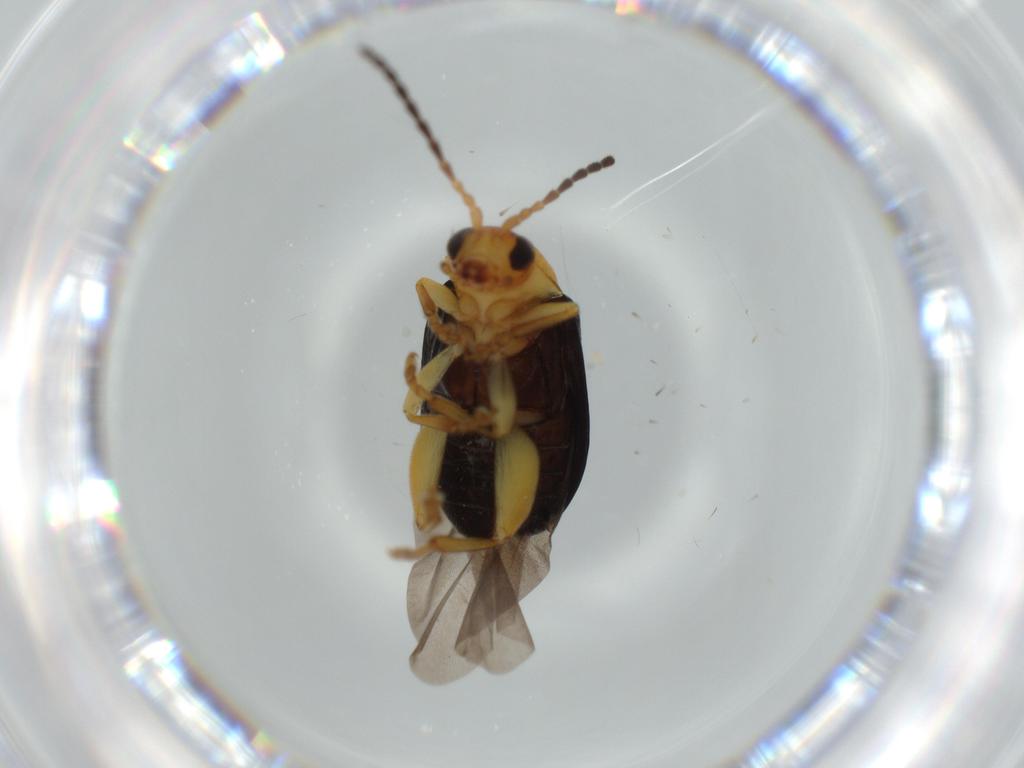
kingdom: Animalia
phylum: Arthropoda
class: Insecta
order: Coleoptera
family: Chrysomelidae
